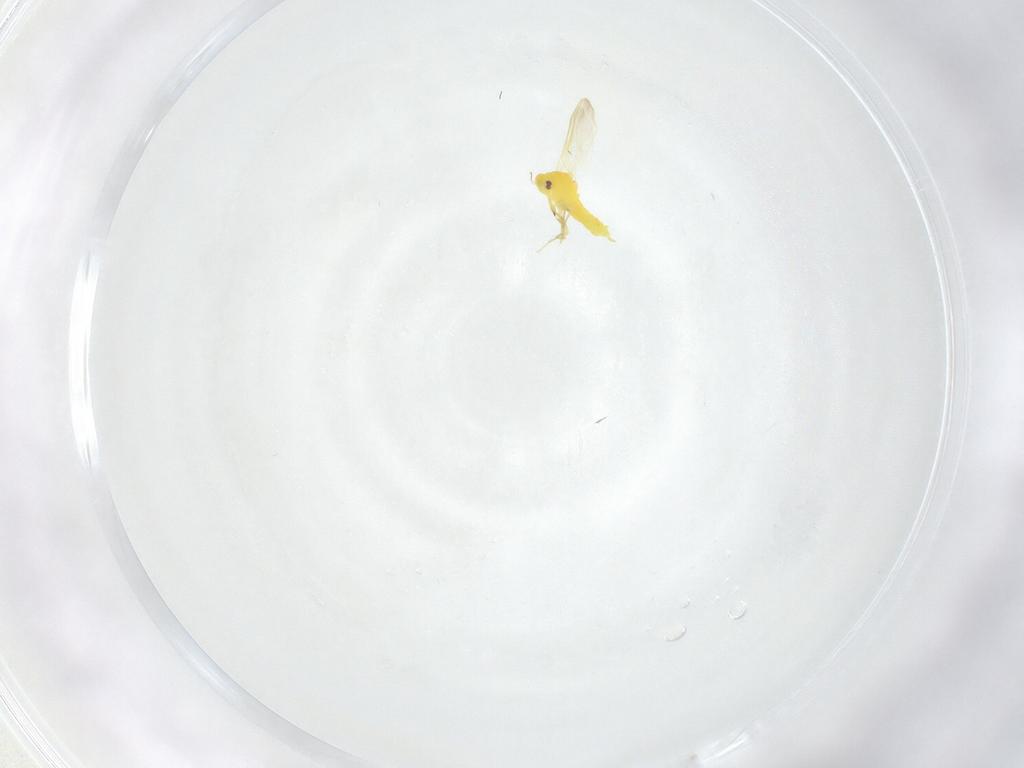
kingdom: Animalia
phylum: Arthropoda
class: Insecta
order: Hemiptera
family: Aleyrodidae
